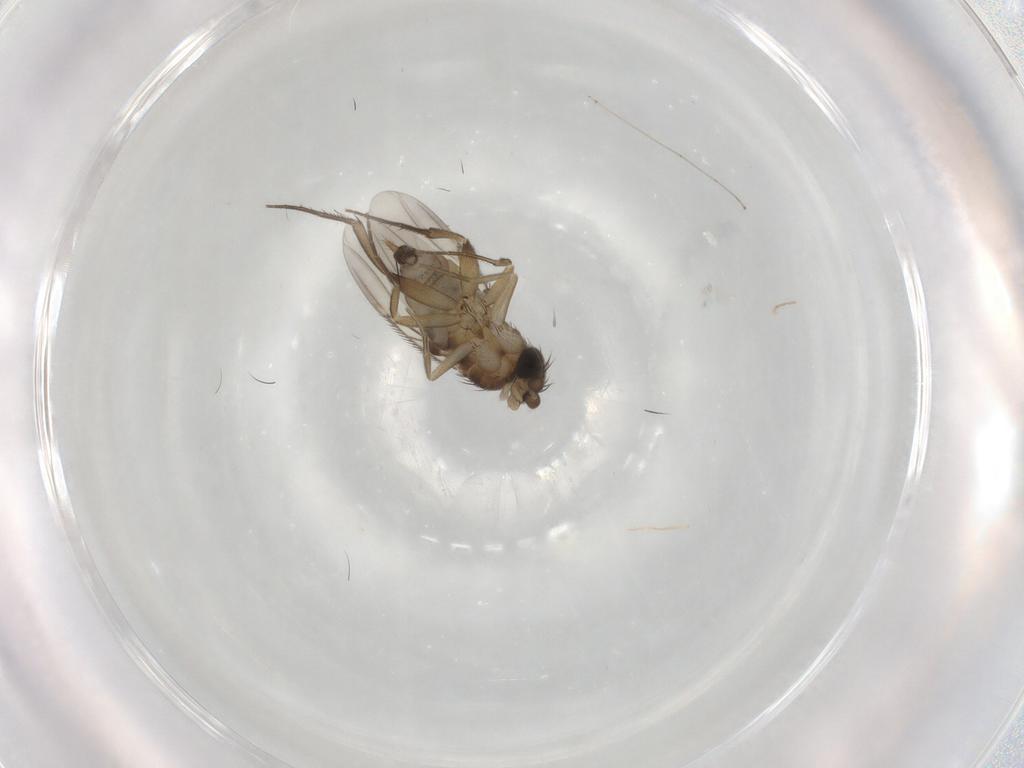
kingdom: Animalia
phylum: Arthropoda
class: Insecta
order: Diptera
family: Phoridae
